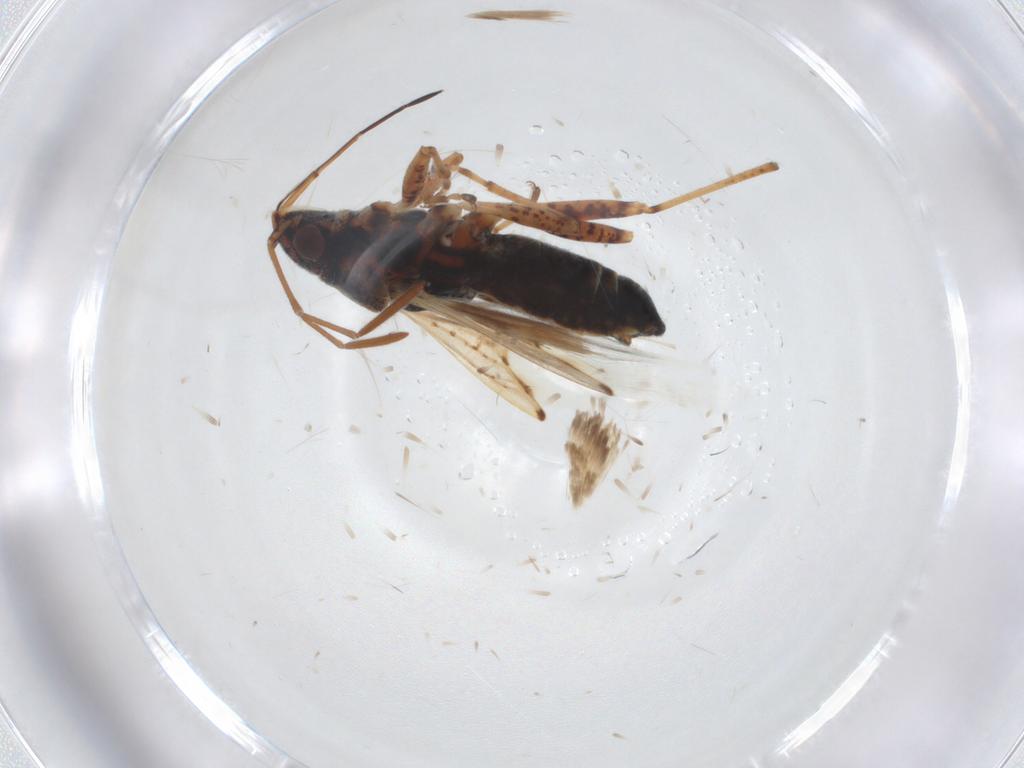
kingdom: Animalia
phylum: Arthropoda
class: Insecta
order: Hemiptera
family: Lygaeidae
